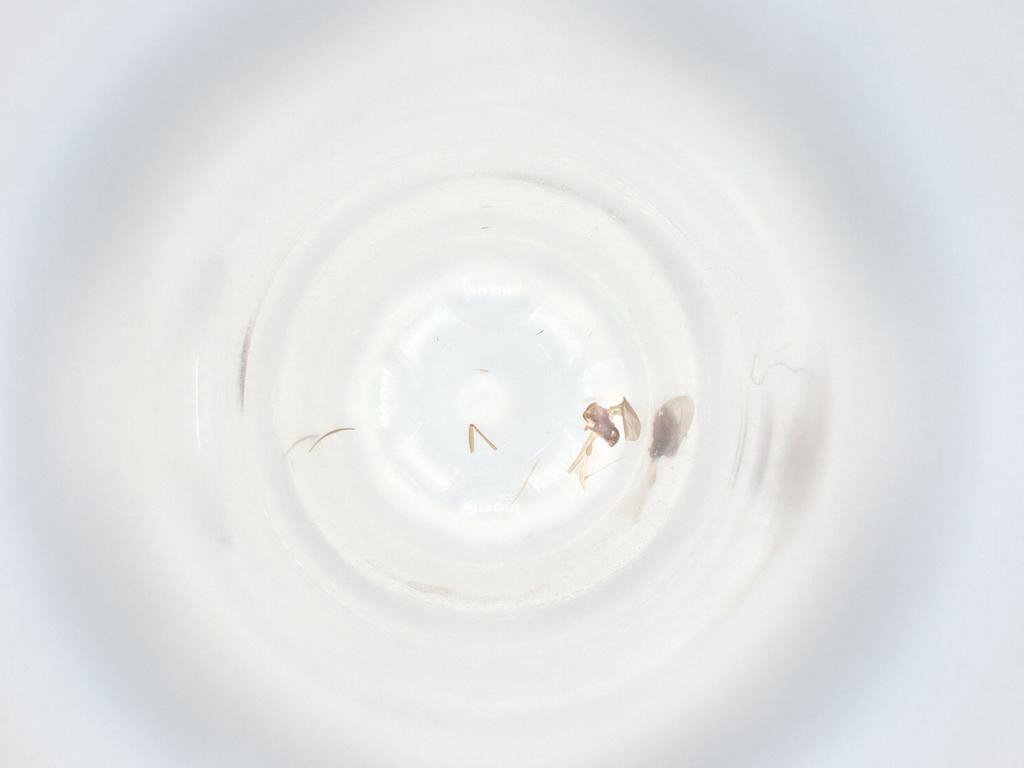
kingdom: Animalia
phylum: Arthropoda
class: Insecta
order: Diptera
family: Sciaridae
